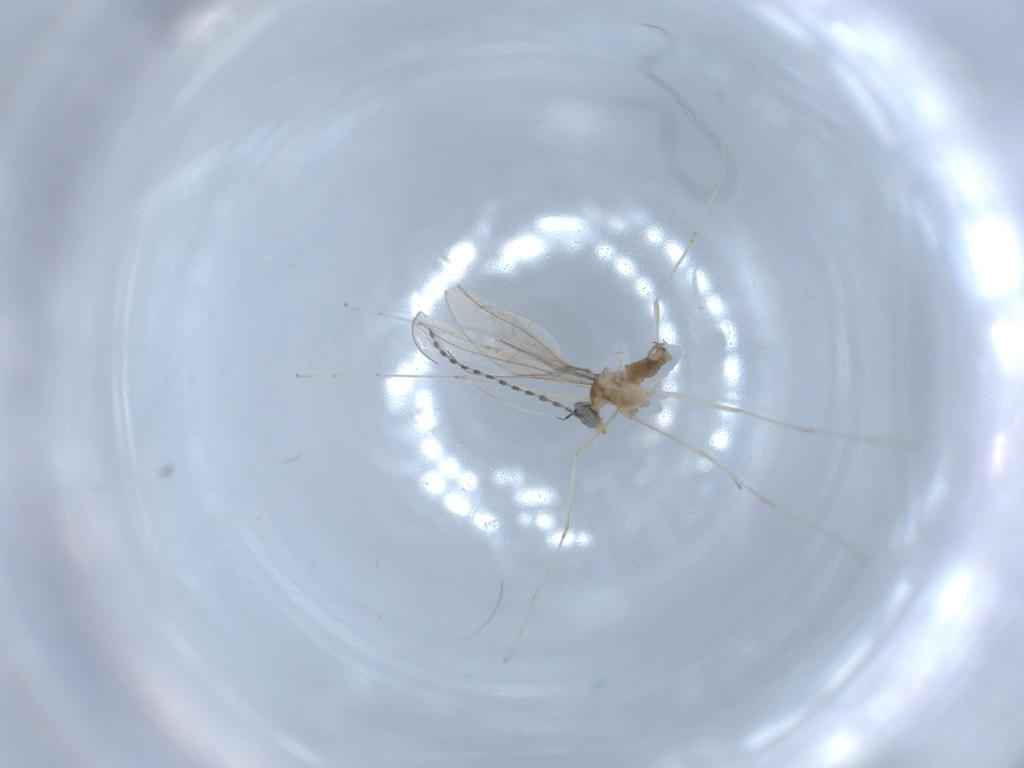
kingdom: Animalia
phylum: Arthropoda
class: Insecta
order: Diptera
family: Cecidomyiidae
